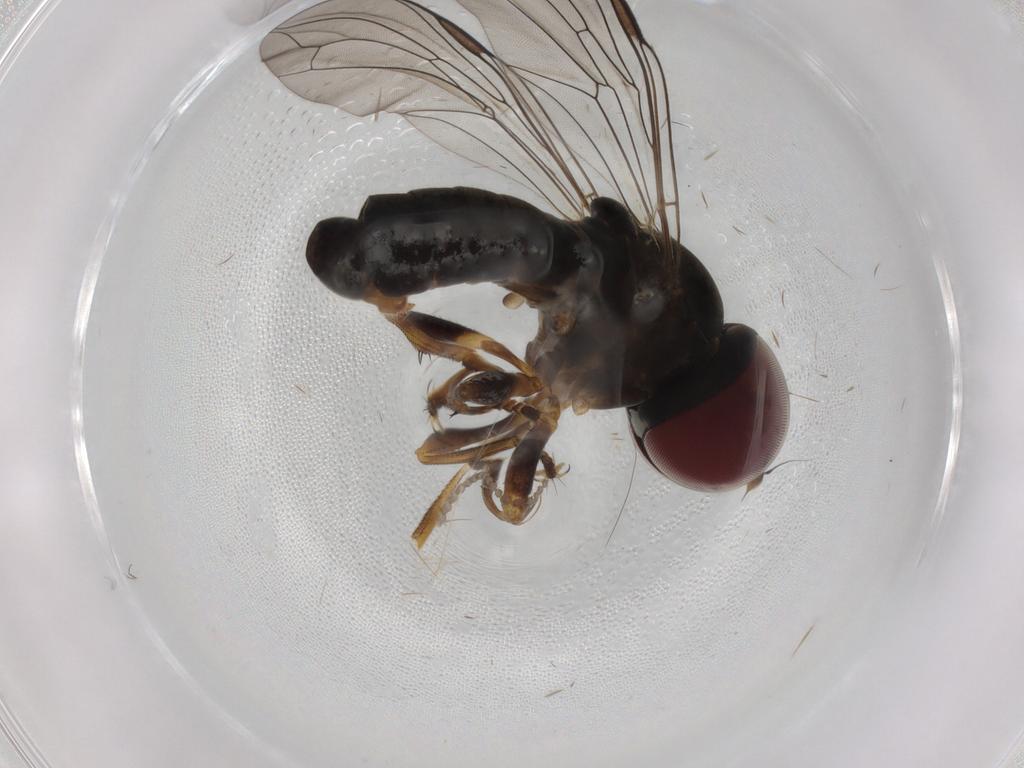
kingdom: Animalia
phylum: Arthropoda
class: Insecta
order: Diptera
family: Pipunculidae
